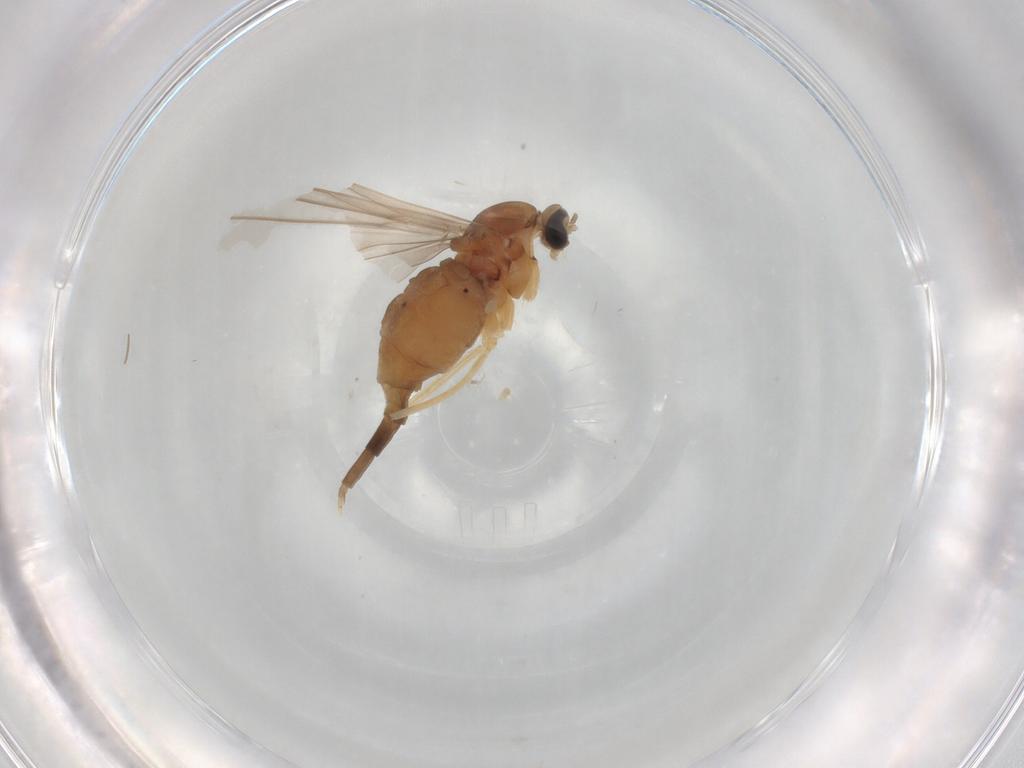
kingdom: Animalia
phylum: Arthropoda
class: Insecta
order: Diptera
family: Cecidomyiidae
